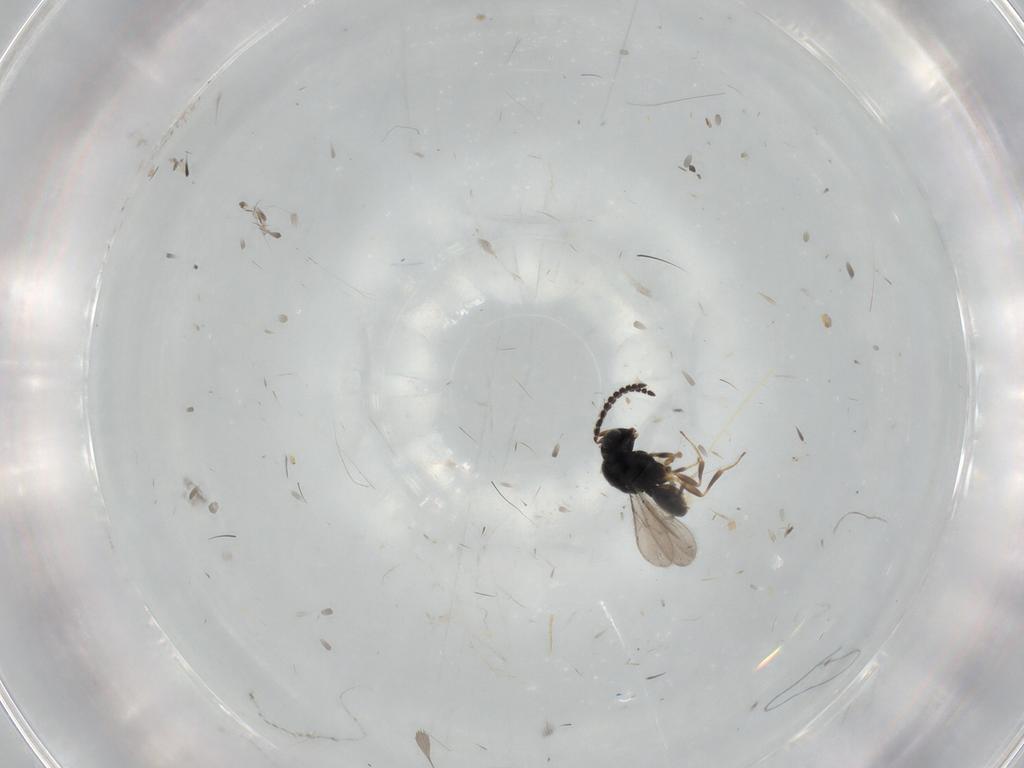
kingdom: Animalia
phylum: Arthropoda
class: Insecta
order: Hymenoptera
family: Scelionidae
